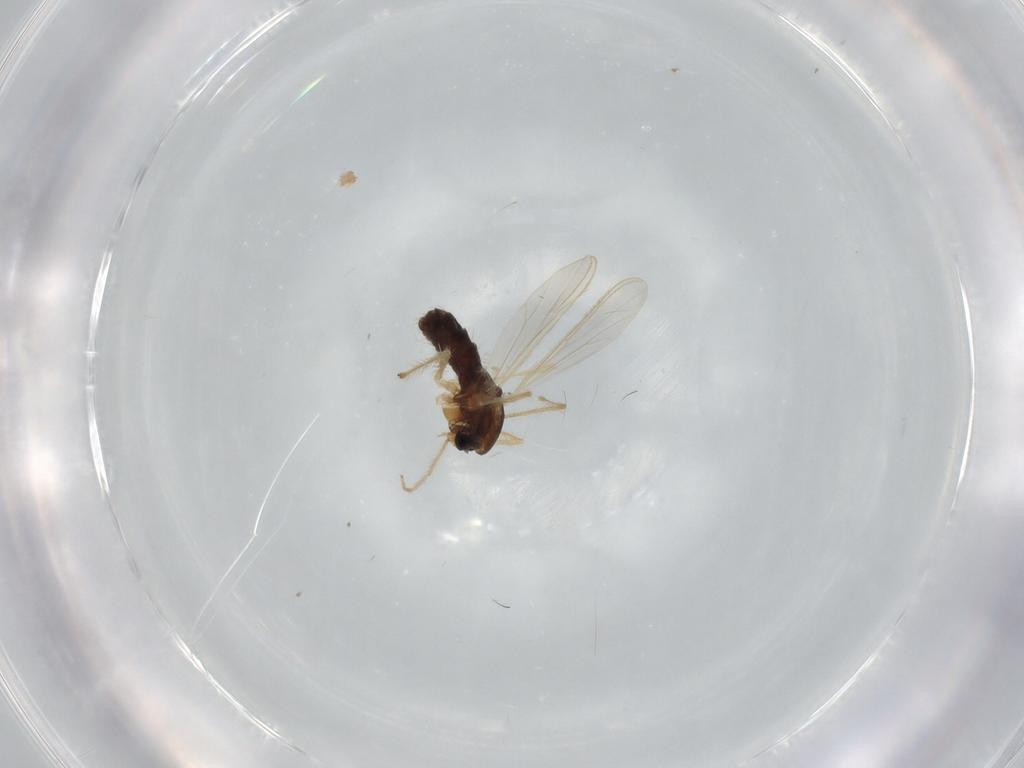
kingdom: Animalia
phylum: Arthropoda
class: Insecta
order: Diptera
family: Chironomidae
